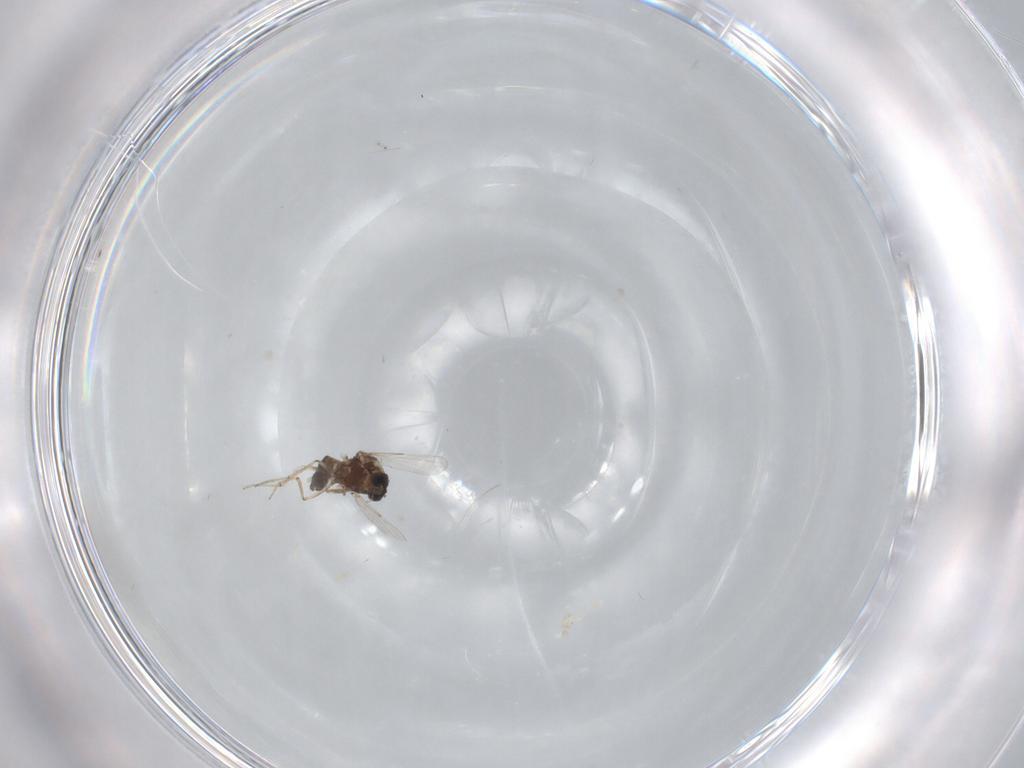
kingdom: Animalia
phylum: Arthropoda
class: Insecta
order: Diptera
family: Ceratopogonidae
